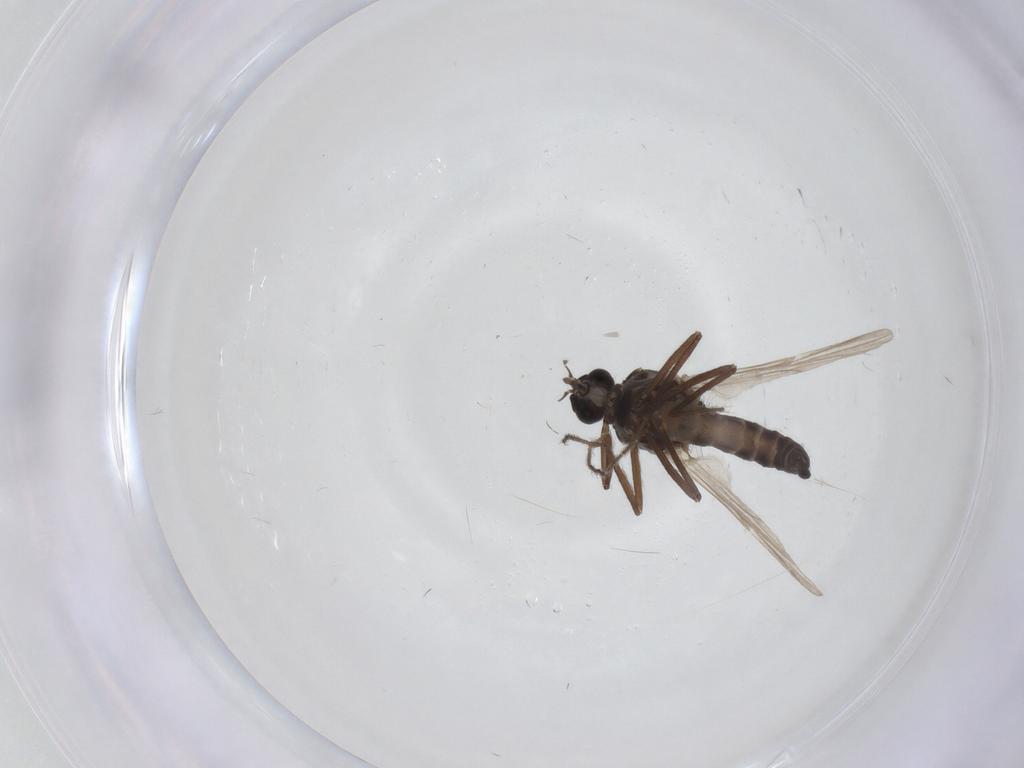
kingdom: Animalia
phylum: Arthropoda
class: Insecta
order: Diptera
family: Ceratopogonidae
